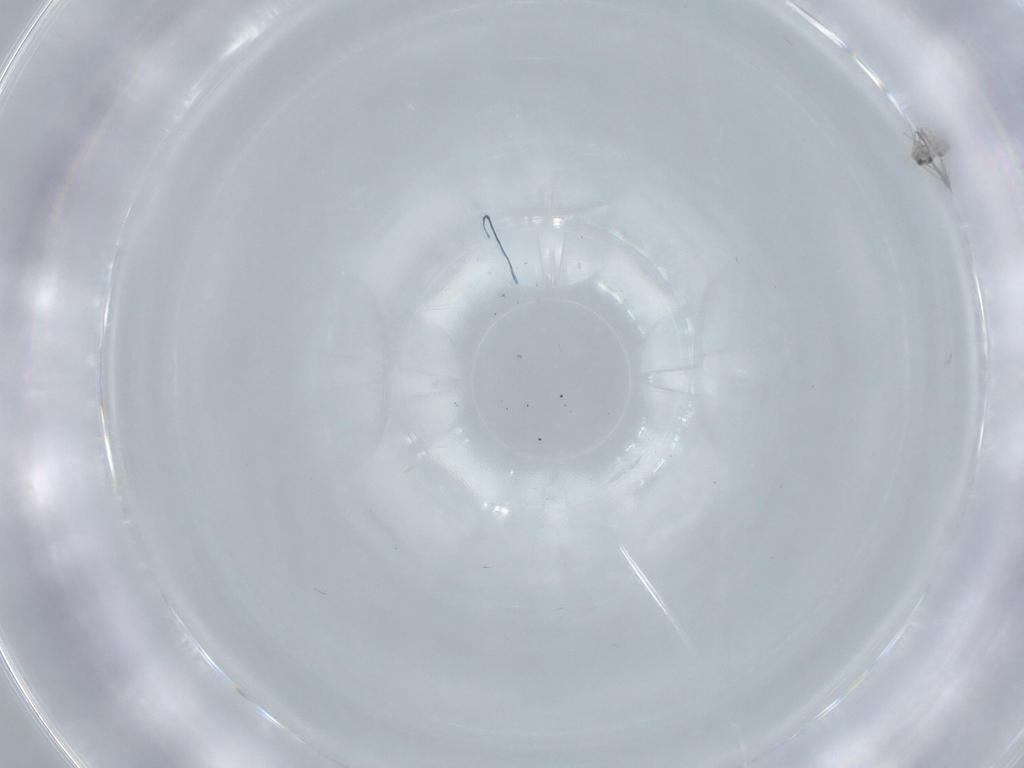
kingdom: Animalia
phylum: Arthropoda
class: Insecta
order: Hymenoptera
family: Mymaridae
